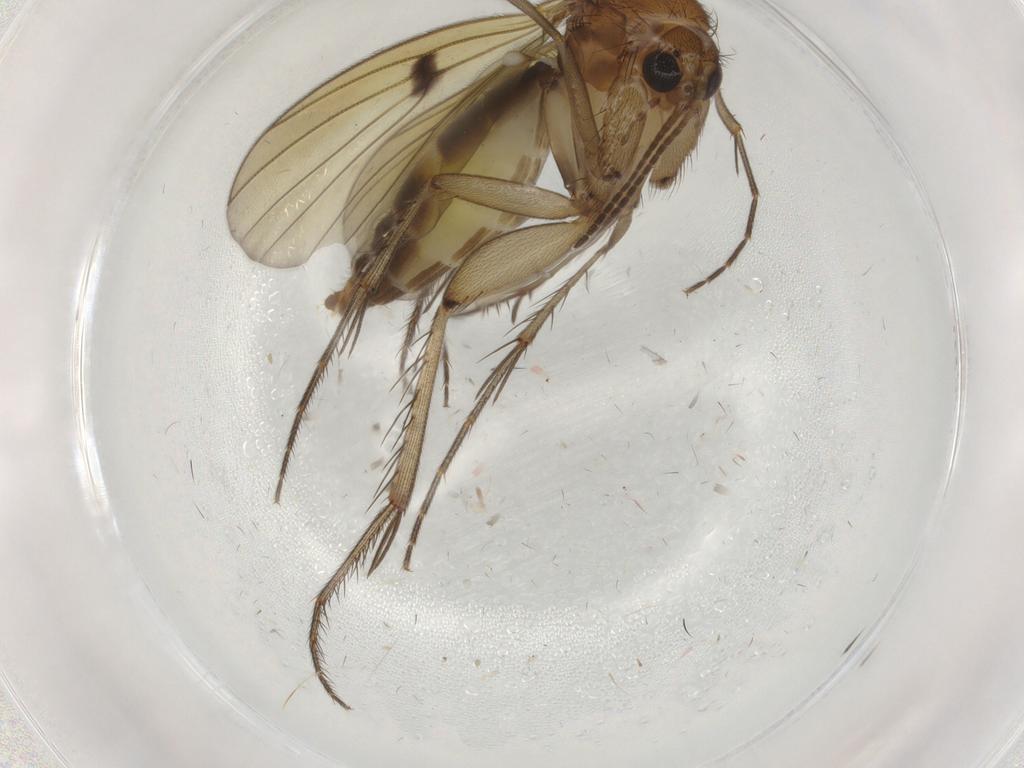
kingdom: Animalia
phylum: Arthropoda
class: Insecta
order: Diptera
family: Mycetophilidae
